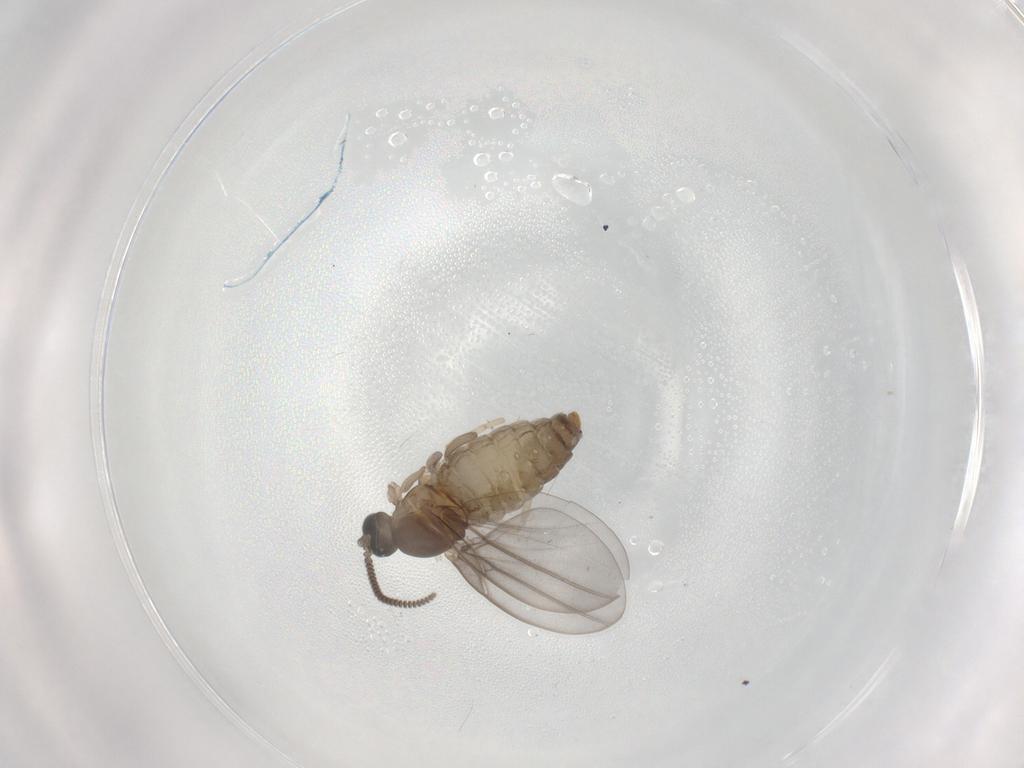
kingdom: Animalia
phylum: Arthropoda
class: Insecta
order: Diptera
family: Cecidomyiidae
